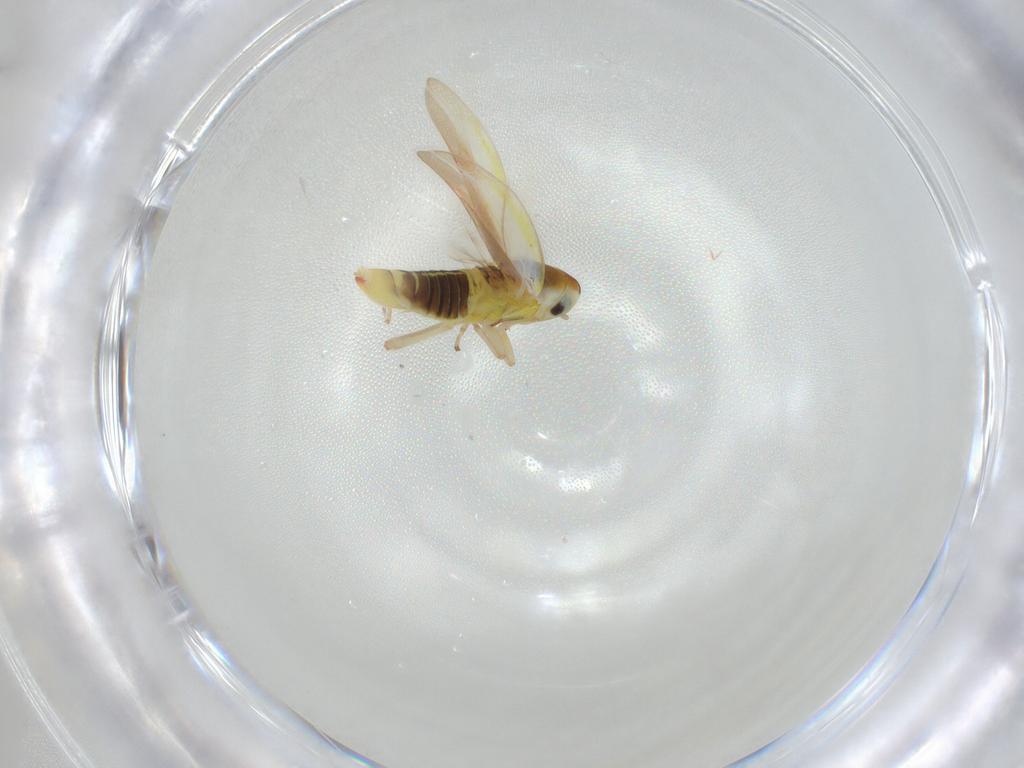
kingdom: Animalia
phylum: Arthropoda
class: Insecta
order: Hemiptera
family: Cicadellidae
